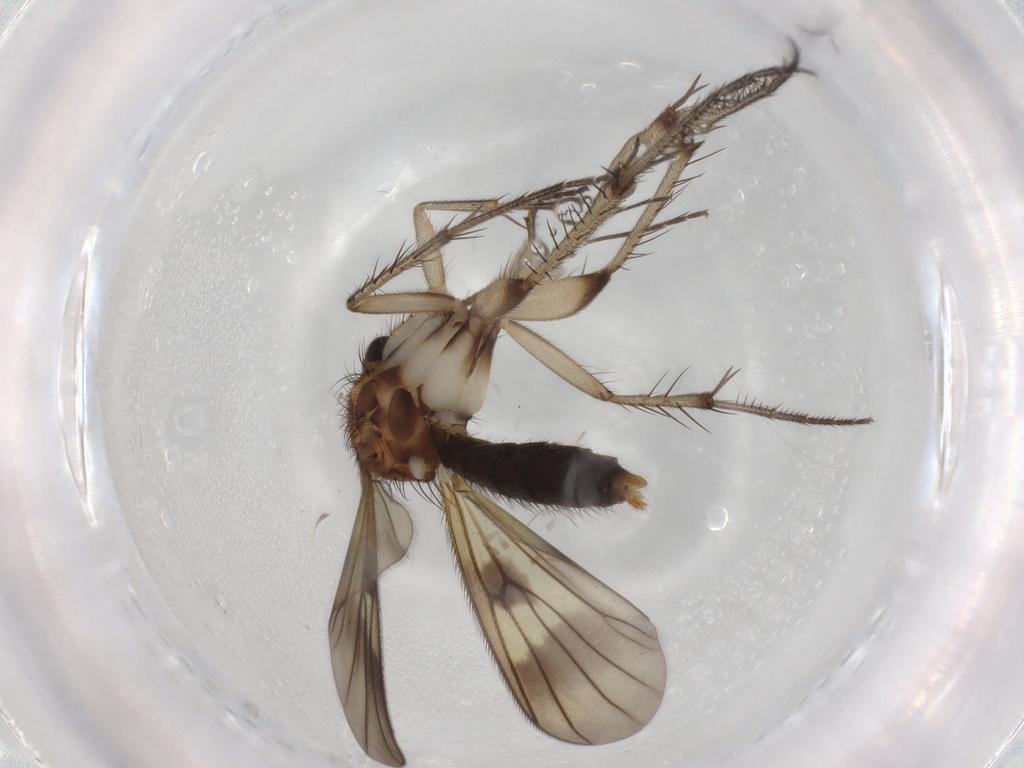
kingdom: Animalia
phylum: Arthropoda
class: Insecta
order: Diptera
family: Mycetophilidae
